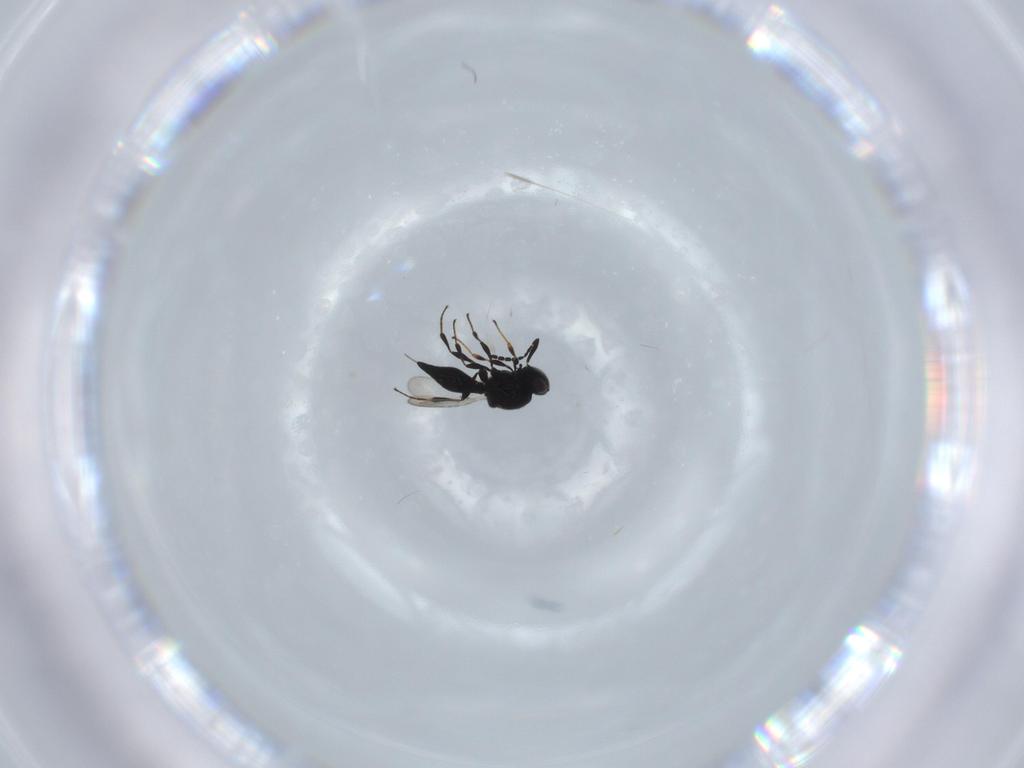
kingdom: Animalia
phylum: Arthropoda
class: Insecta
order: Diptera
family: Mythicomyiidae
